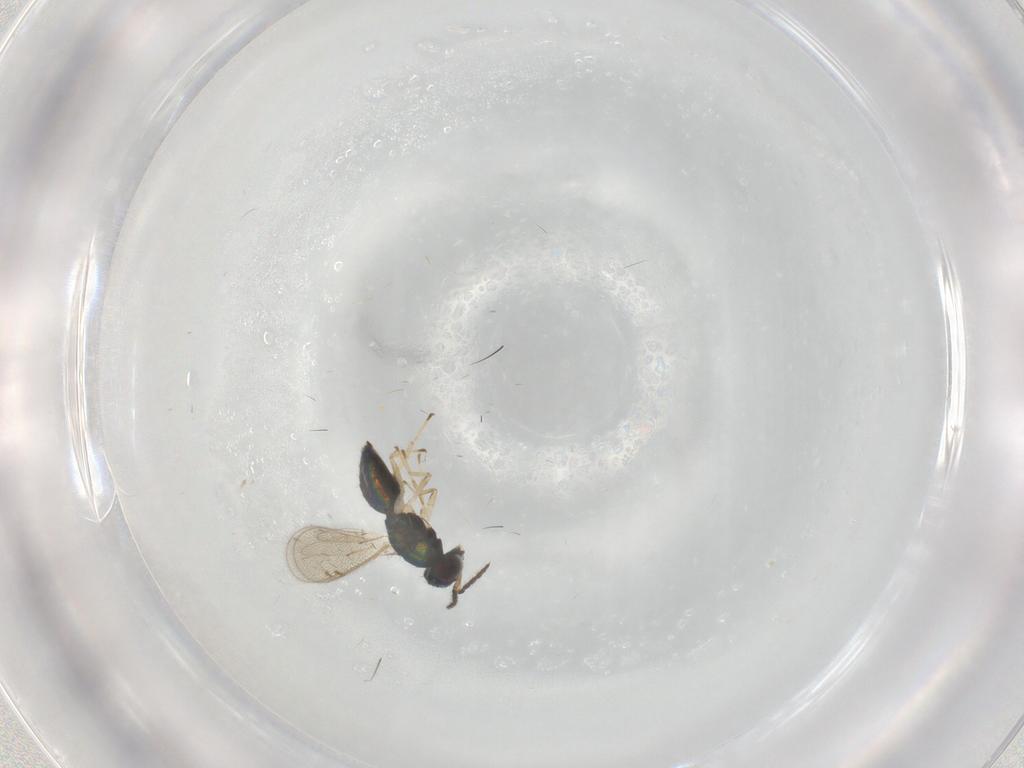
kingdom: Animalia
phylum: Arthropoda
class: Insecta
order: Hymenoptera
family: Eulophidae
